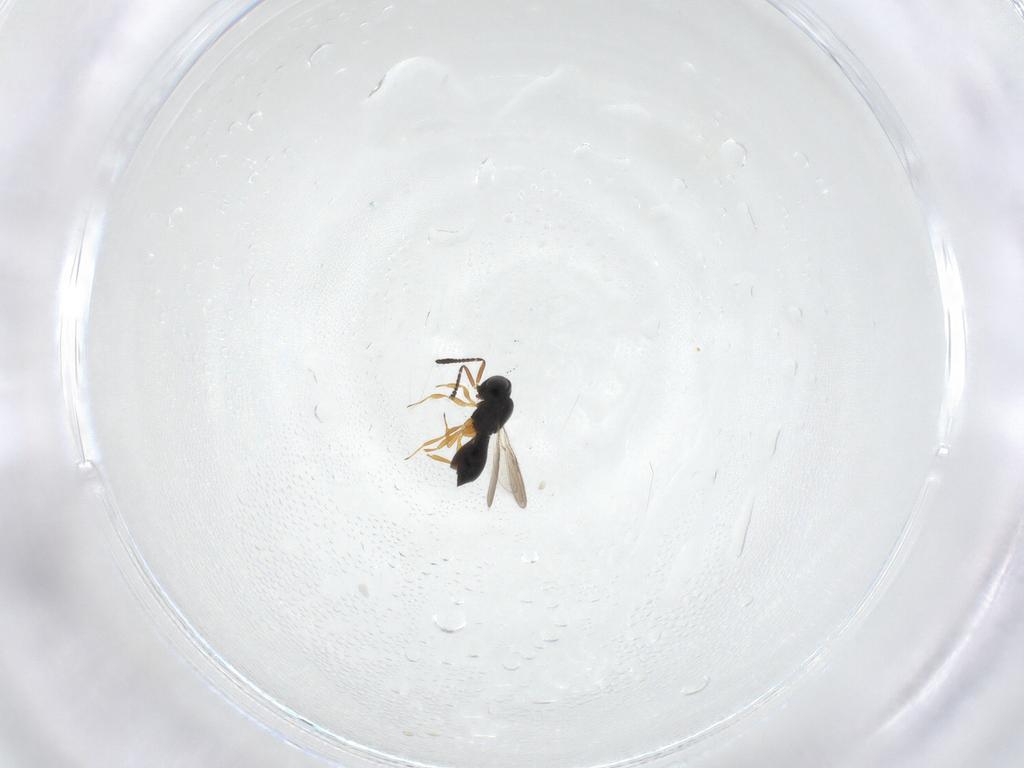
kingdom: Animalia
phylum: Arthropoda
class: Insecta
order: Hymenoptera
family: Scelionidae
